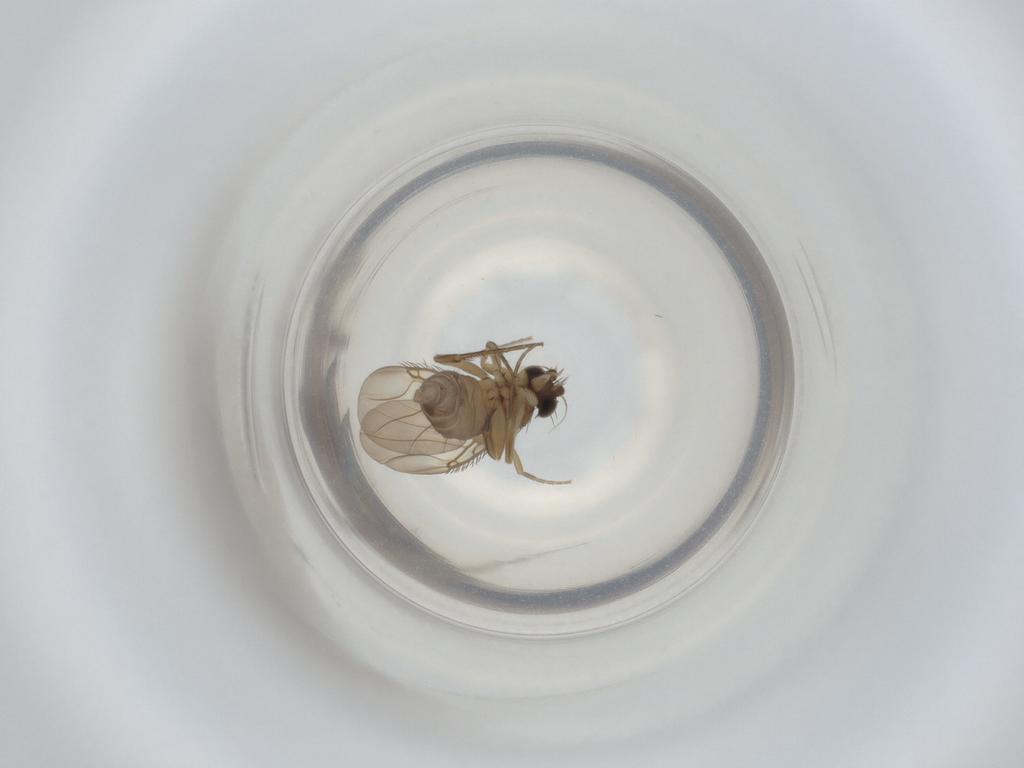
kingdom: Animalia
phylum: Arthropoda
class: Insecta
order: Diptera
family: Phoridae
